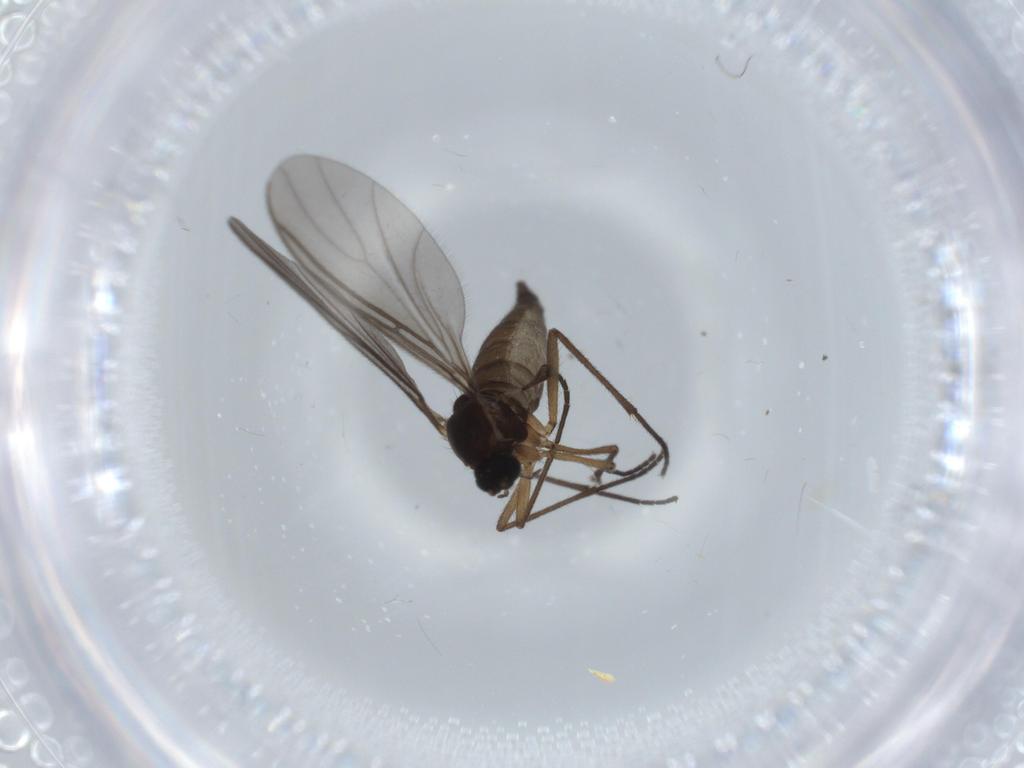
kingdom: Animalia
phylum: Arthropoda
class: Insecta
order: Diptera
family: Sciaridae
